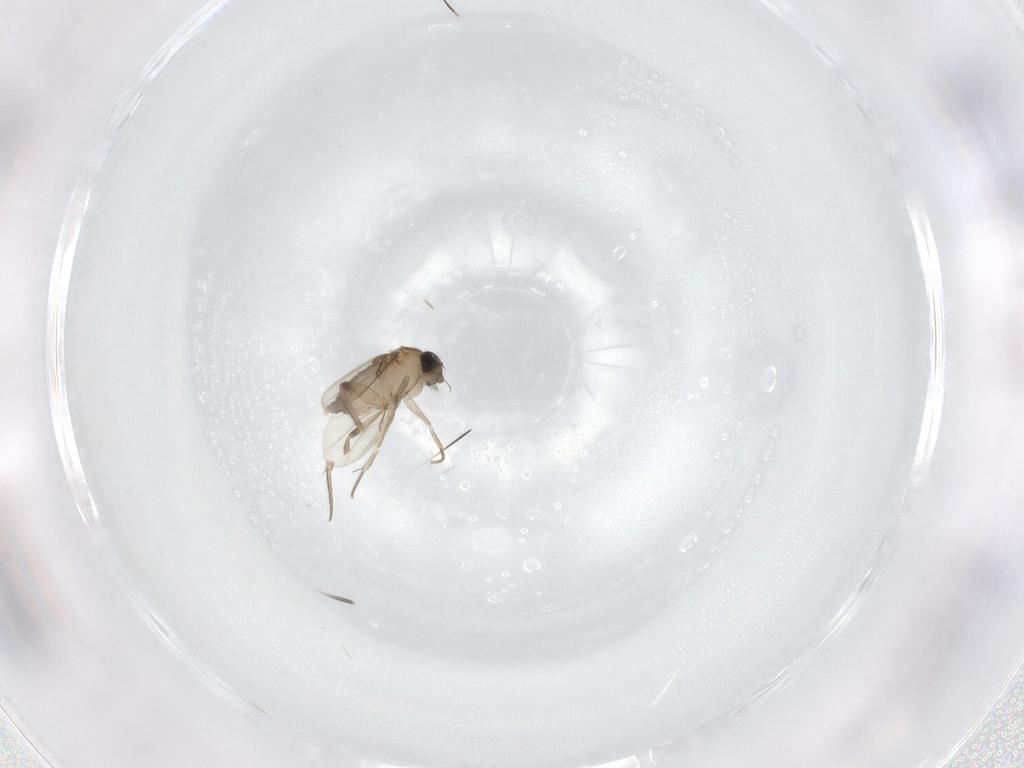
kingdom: Animalia
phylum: Arthropoda
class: Insecta
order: Diptera
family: Phoridae
